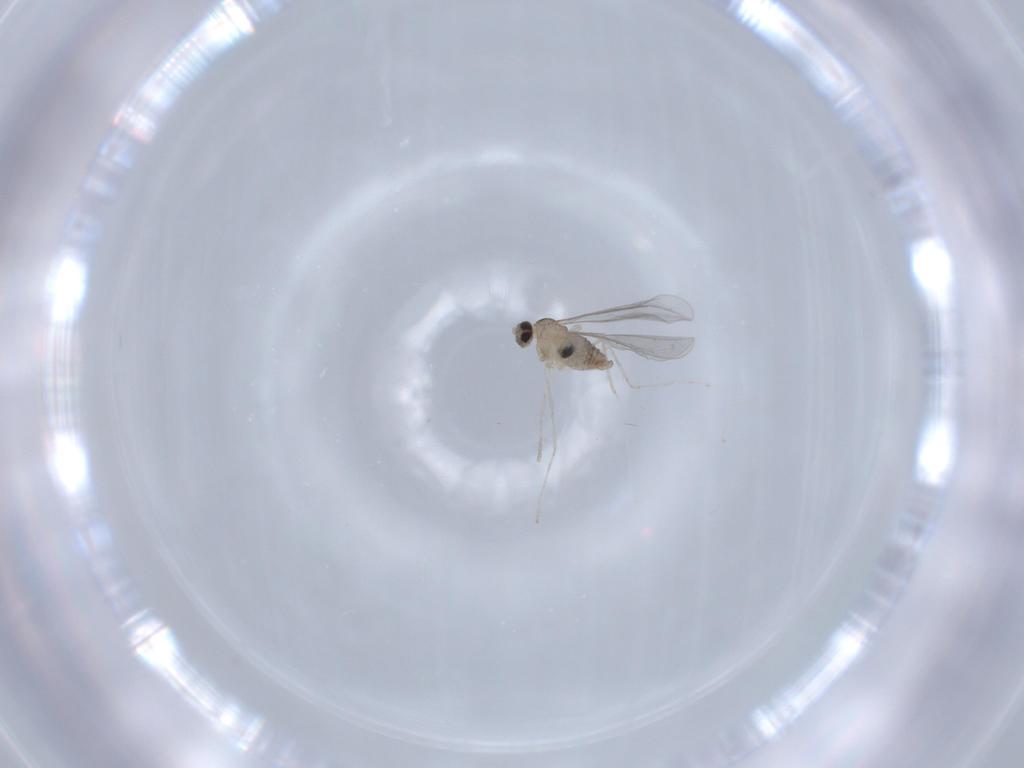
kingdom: Animalia
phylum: Arthropoda
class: Insecta
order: Diptera
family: Cecidomyiidae
